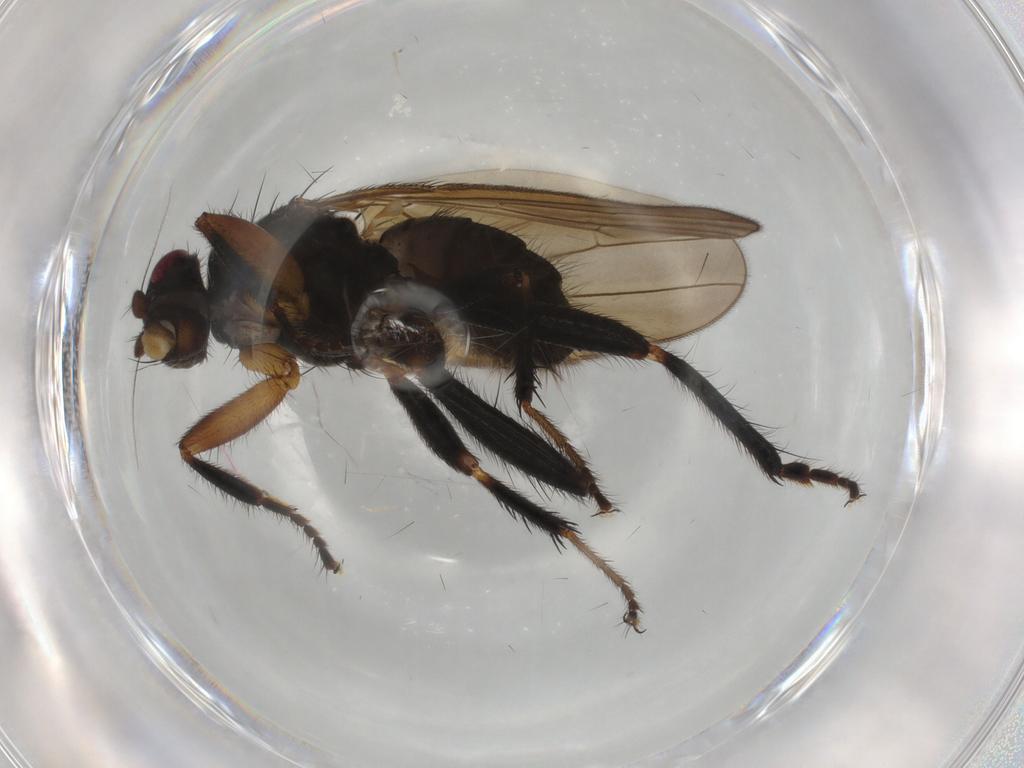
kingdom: Animalia
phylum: Arthropoda
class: Insecta
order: Diptera
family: Sphaeroceridae
